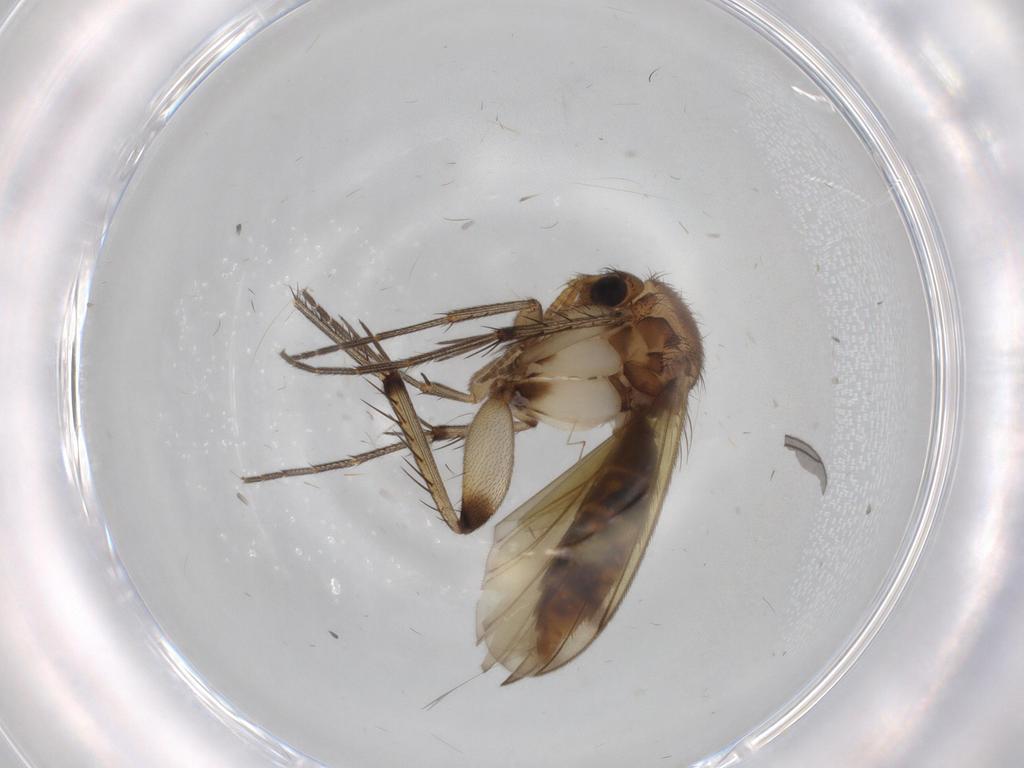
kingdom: Animalia
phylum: Arthropoda
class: Insecta
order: Diptera
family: Mycetophilidae
